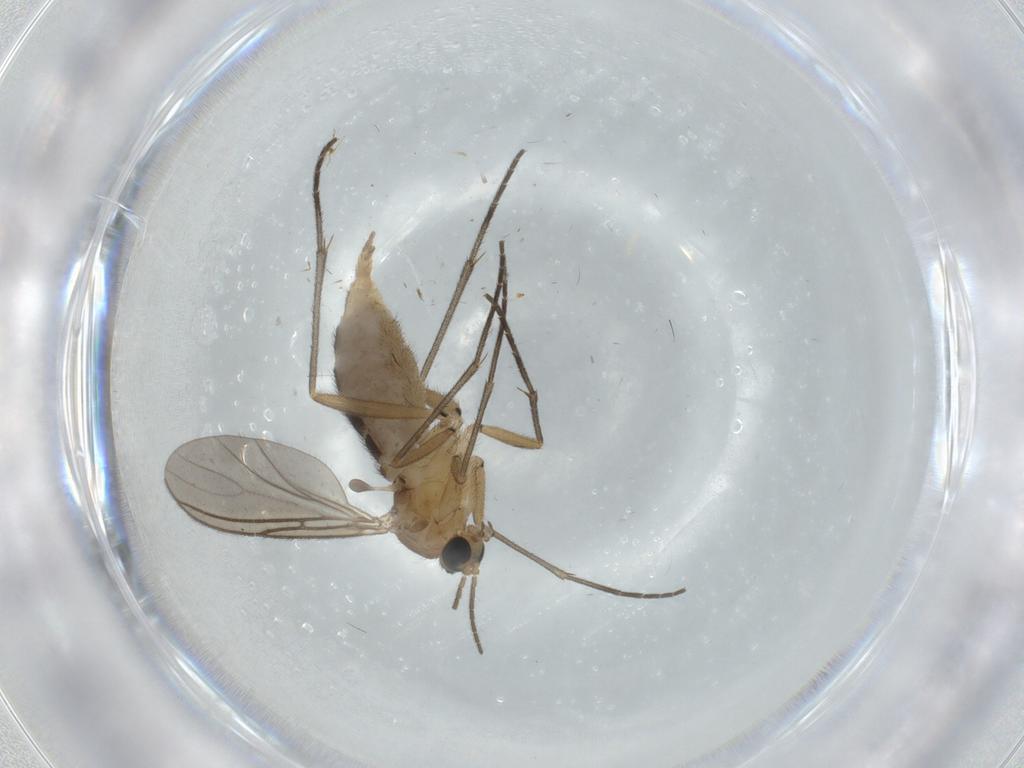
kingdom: Animalia
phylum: Arthropoda
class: Insecta
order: Diptera
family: Sciaridae
